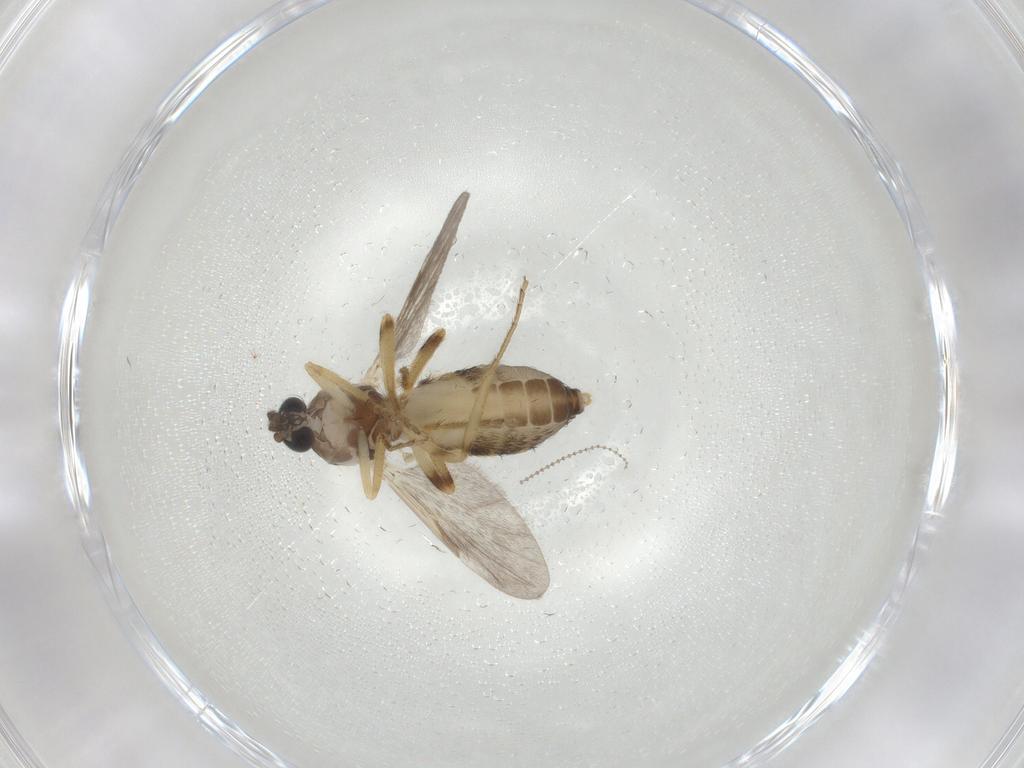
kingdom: Animalia
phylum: Arthropoda
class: Insecta
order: Diptera
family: Ceratopogonidae
